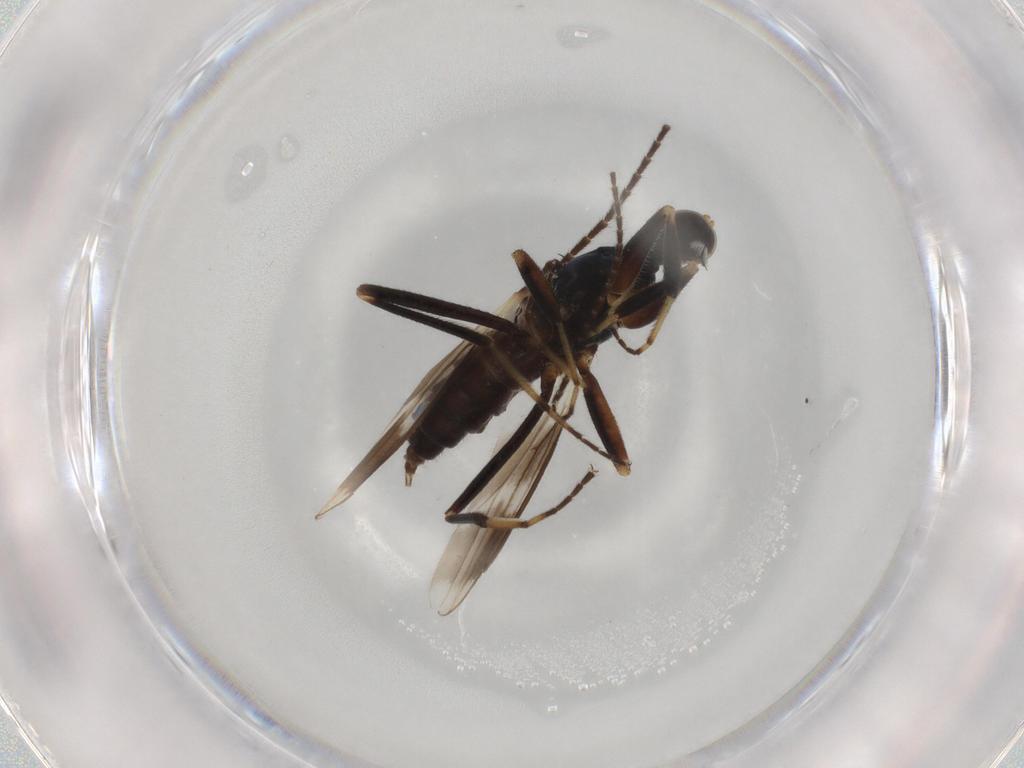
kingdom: Animalia
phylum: Arthropoda
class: Insecta
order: Diptera
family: Hybotidae
